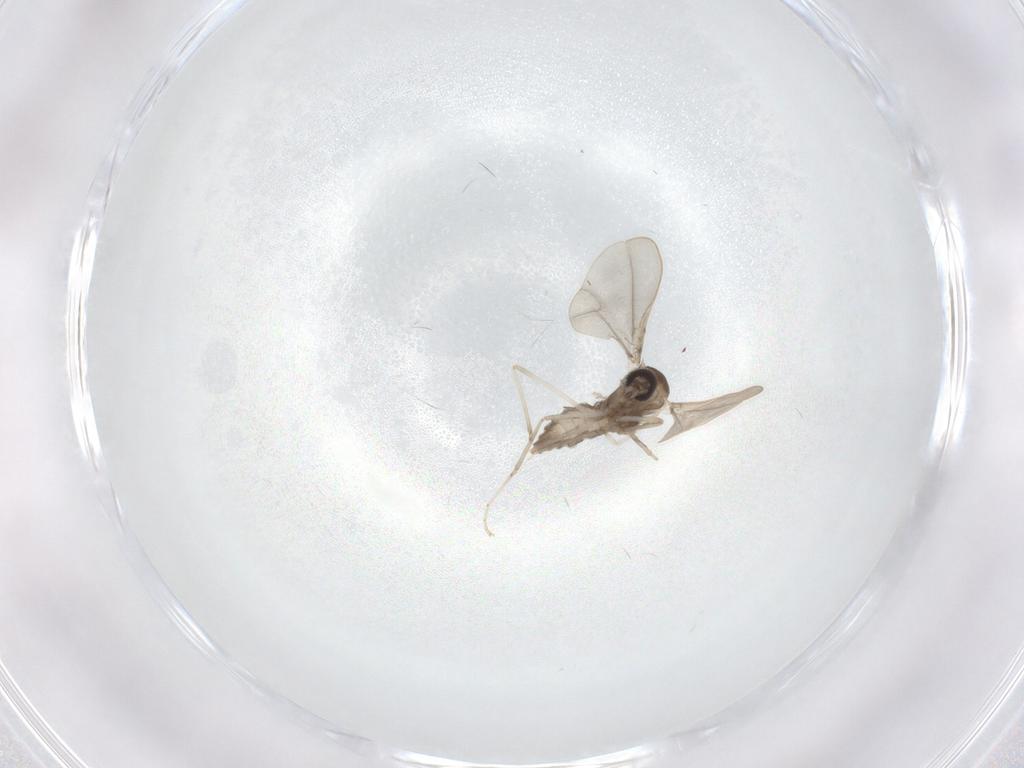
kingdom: Animalia
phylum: Arthropoda
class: Insecta
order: Diptera
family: Cecidomyiidae
